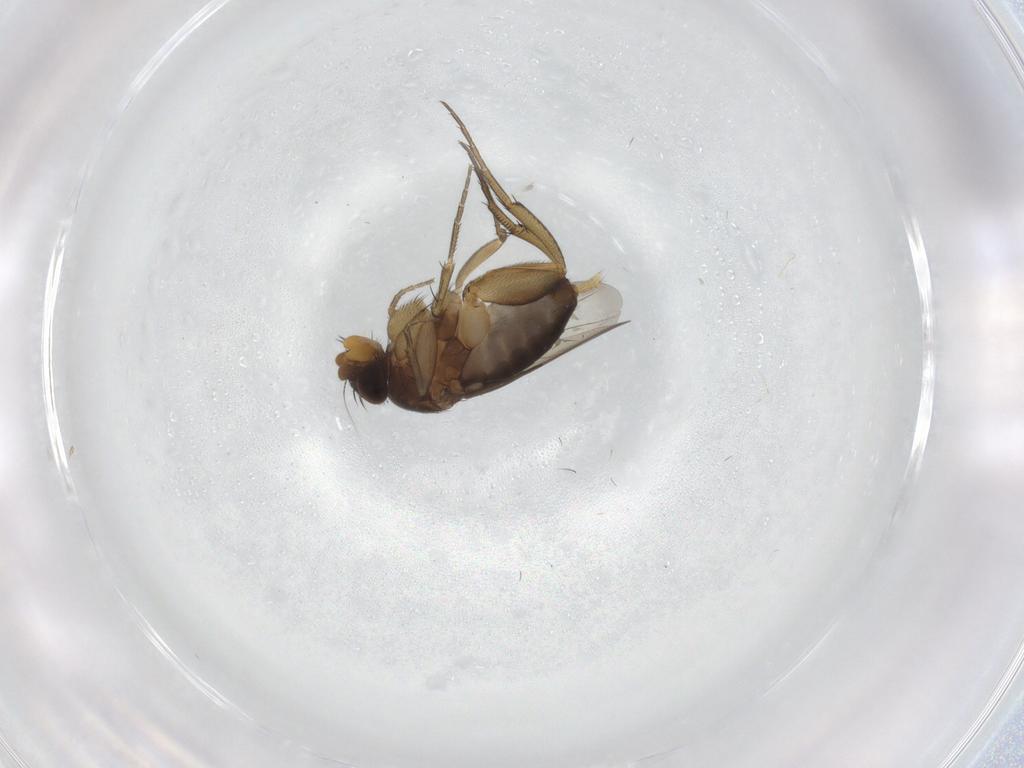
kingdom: Animalia
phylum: Arthropoda
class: Insecta
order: Diptera
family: Phoridae
